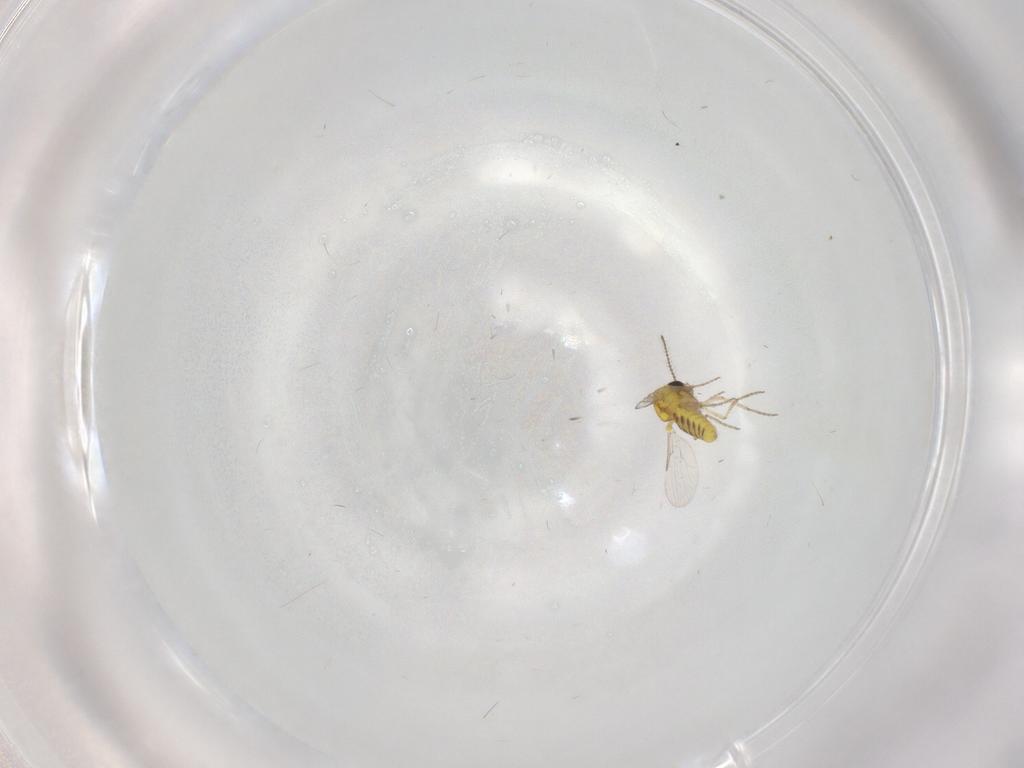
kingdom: Animalia
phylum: Arthropoda
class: Insecta
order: Diptera
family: Ceratopogonidae
